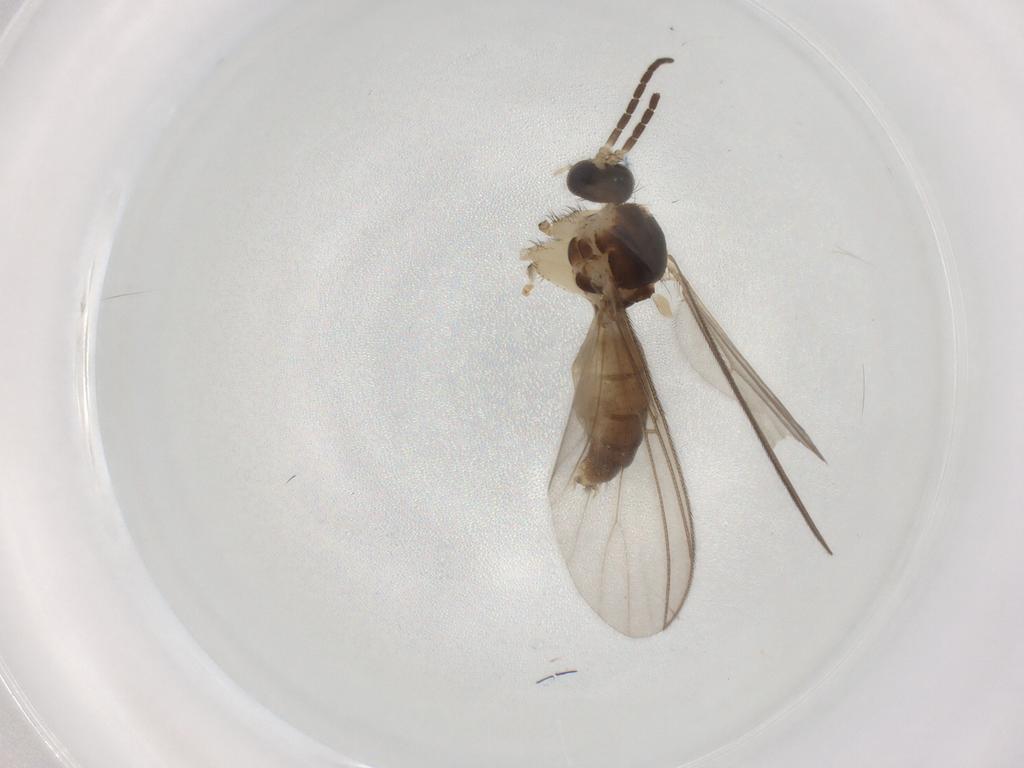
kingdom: Animalia
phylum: Arthropoda
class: Insecta
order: Diptera
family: Mycetophilidae
